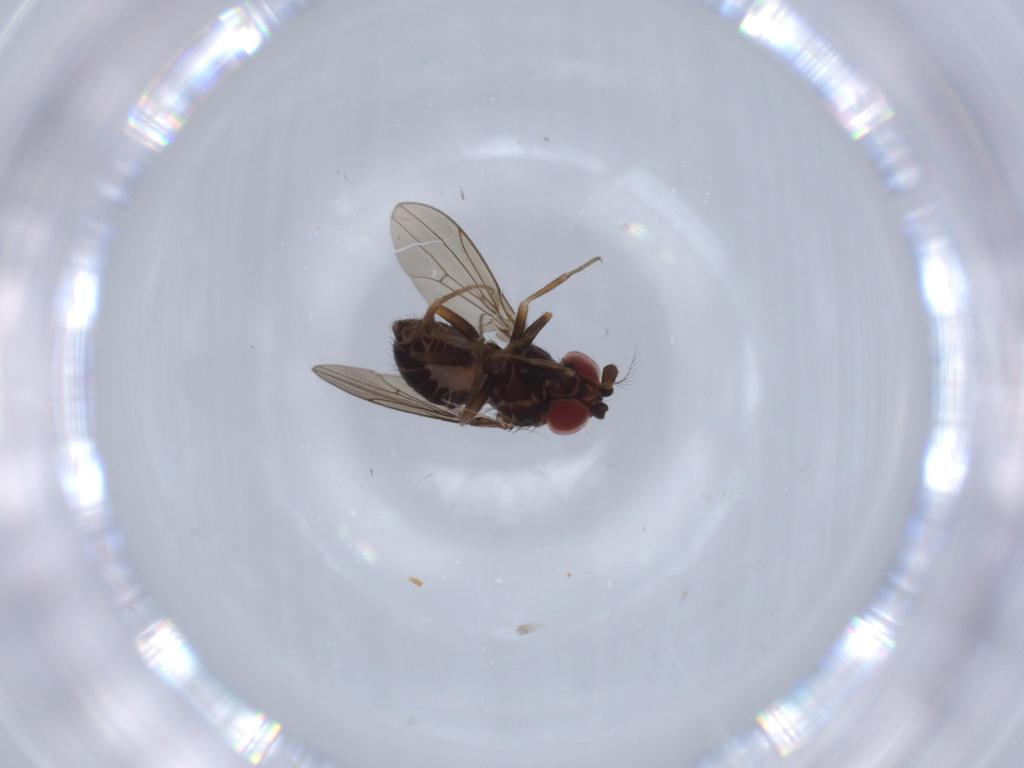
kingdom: Animalia
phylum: Arthropoda
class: Insecta
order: Diptera
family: Drosophilidae
